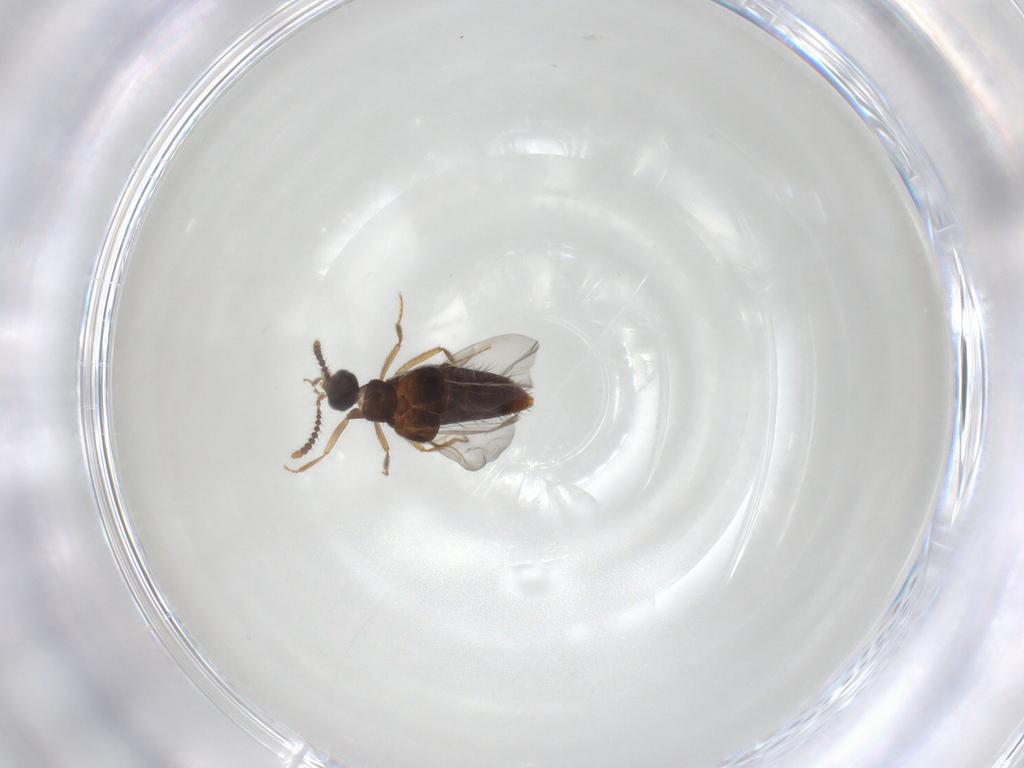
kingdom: Animalia
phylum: Arthropoda
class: Insecta
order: Coleoptera
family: Staphylinidae
